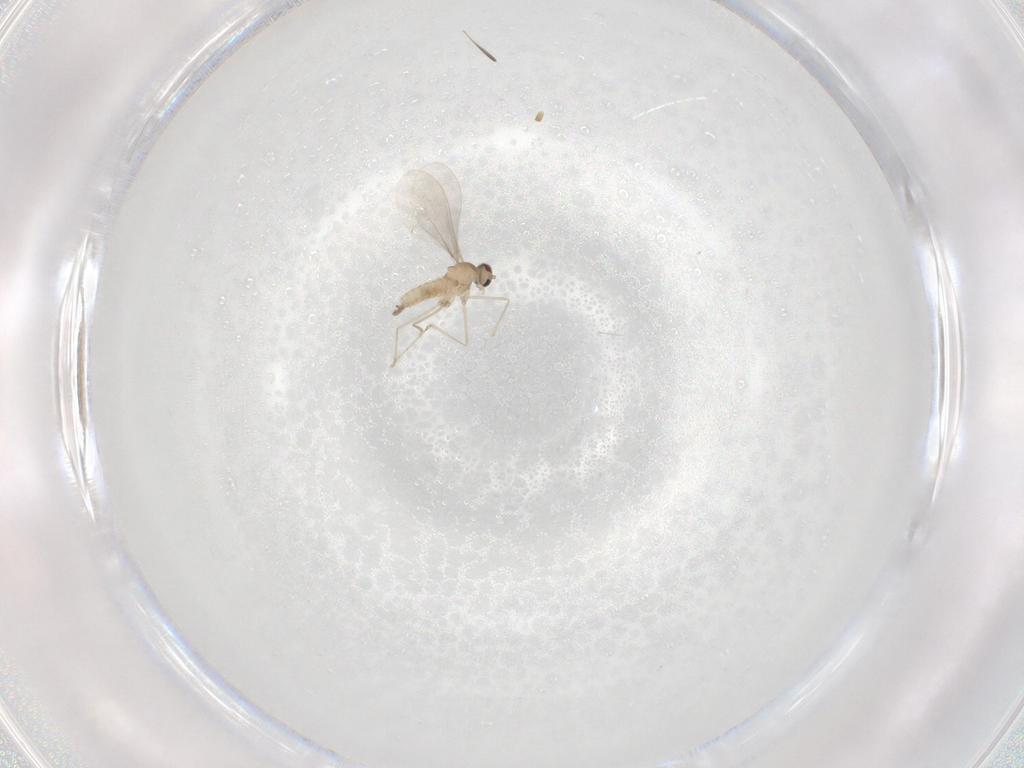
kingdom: Animalia
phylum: Arthropoda
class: Insecta
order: Diptera
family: Cecidomyiidae
